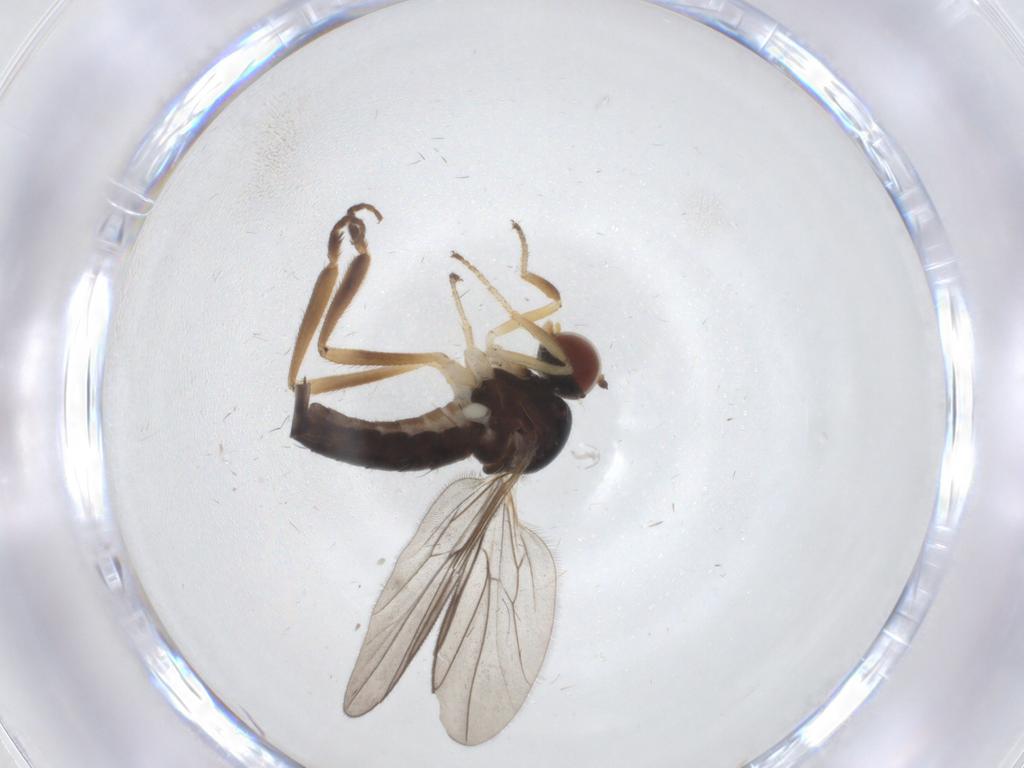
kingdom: Animalia
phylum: Arthropoda
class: Insecta
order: Diptera
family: Hybotidae
